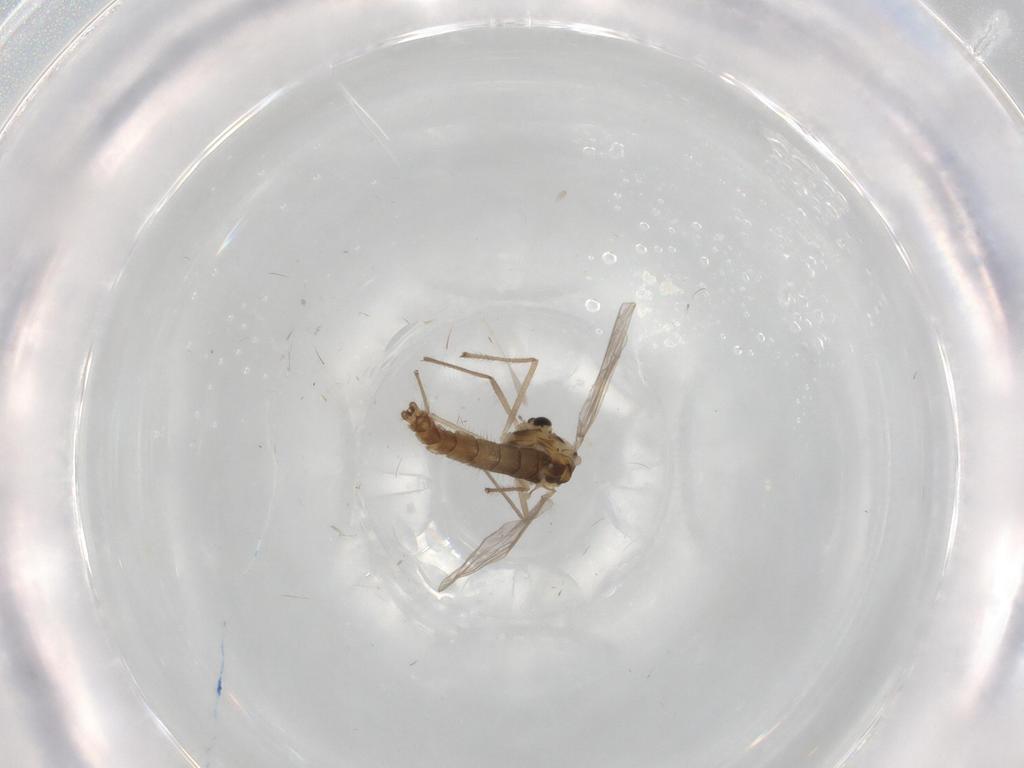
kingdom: Animalia
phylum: Arthropoda
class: Insecta
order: Diptera
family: Chironomidae
